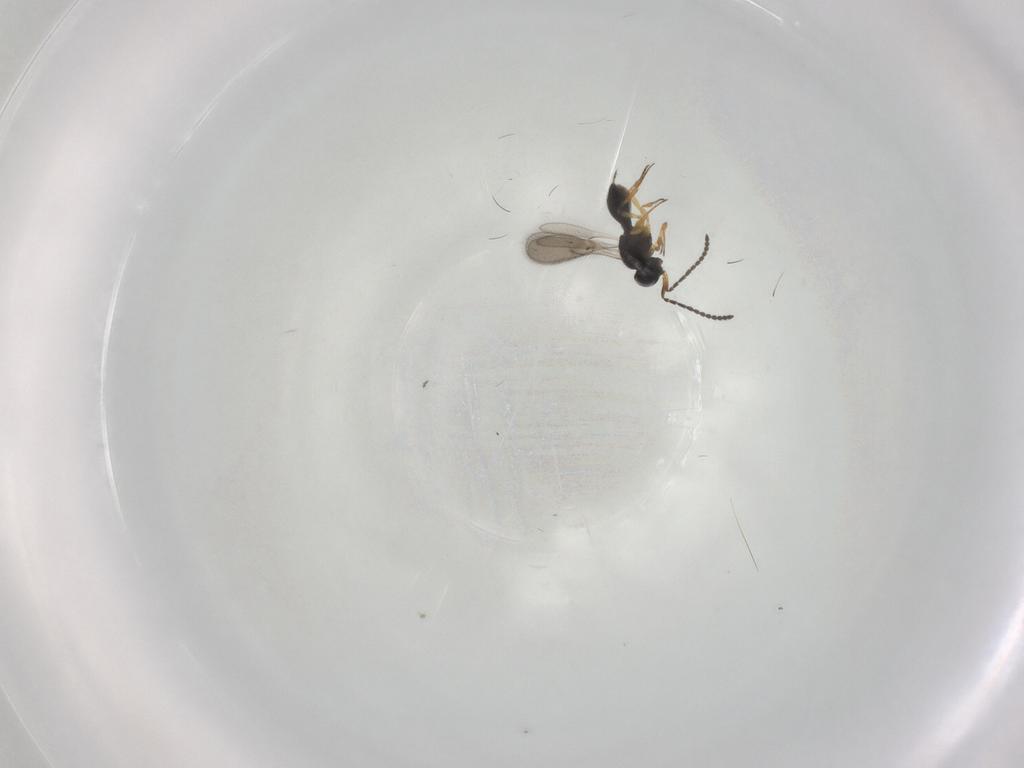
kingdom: Animalia
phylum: Arthropoda
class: Insecta
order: Hymenoptera
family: Scelionidae
